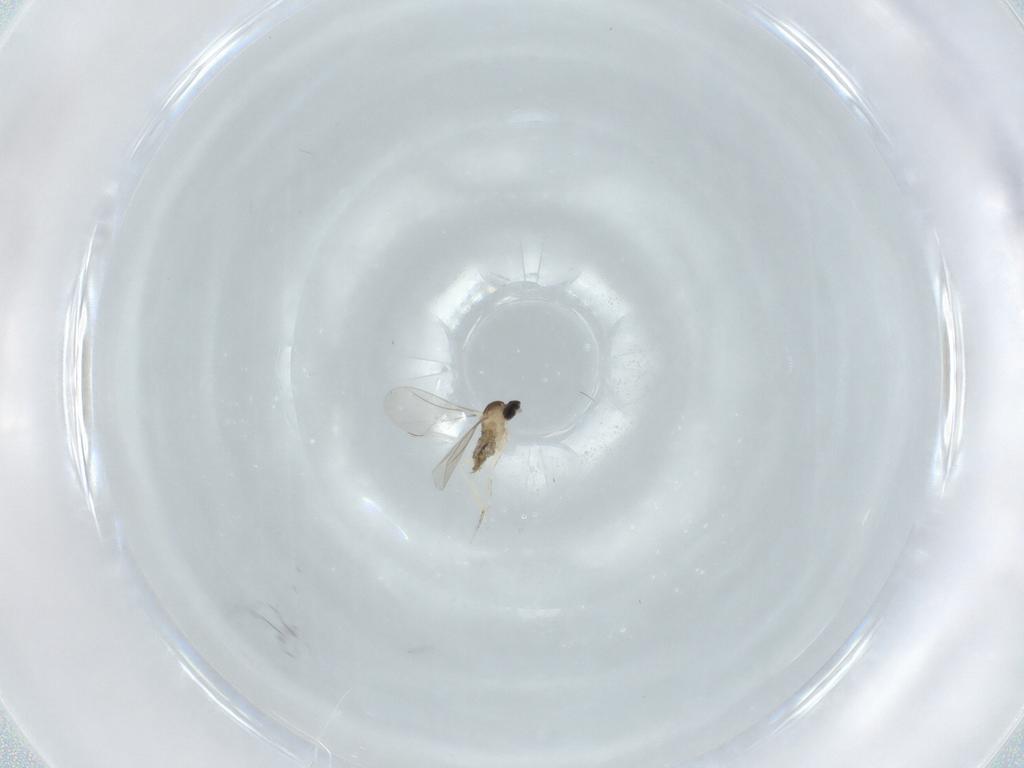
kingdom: Animalia
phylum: Arthropoda
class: Insecta
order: Diptera
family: Cecidomyiidae
